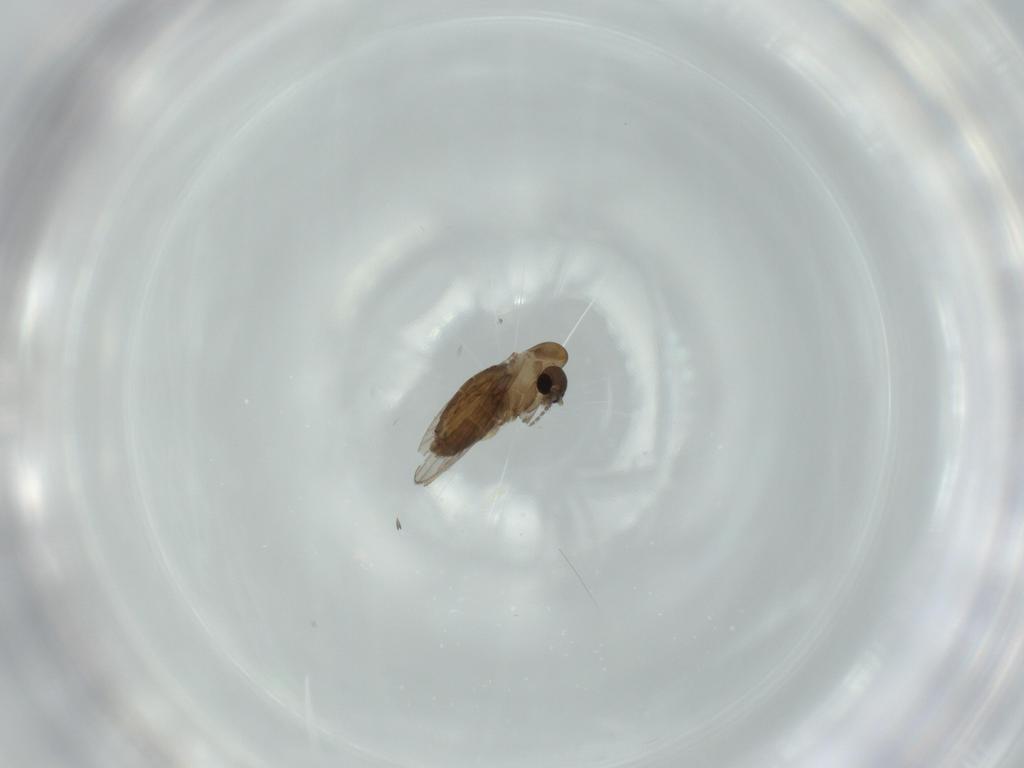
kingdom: Animalia
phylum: Arthropoda
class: Insecta
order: Diptera
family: Psychodidae
